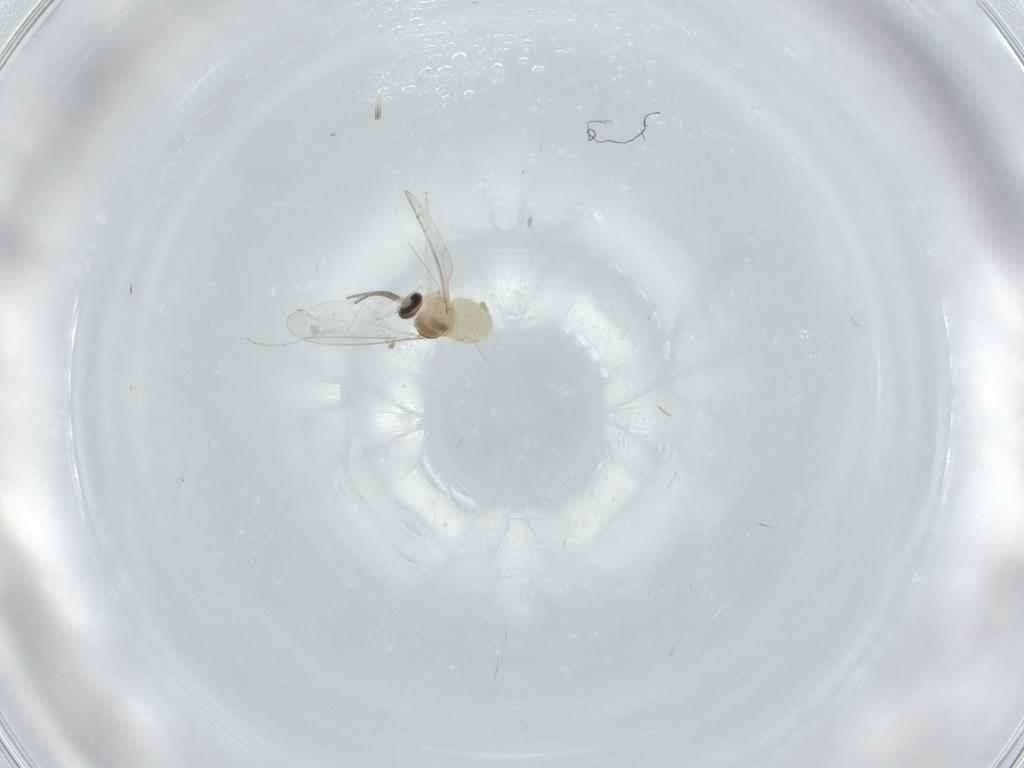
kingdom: Animalia
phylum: Arthropoda
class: Insecta
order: Diptera
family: Cecidomyiidae
